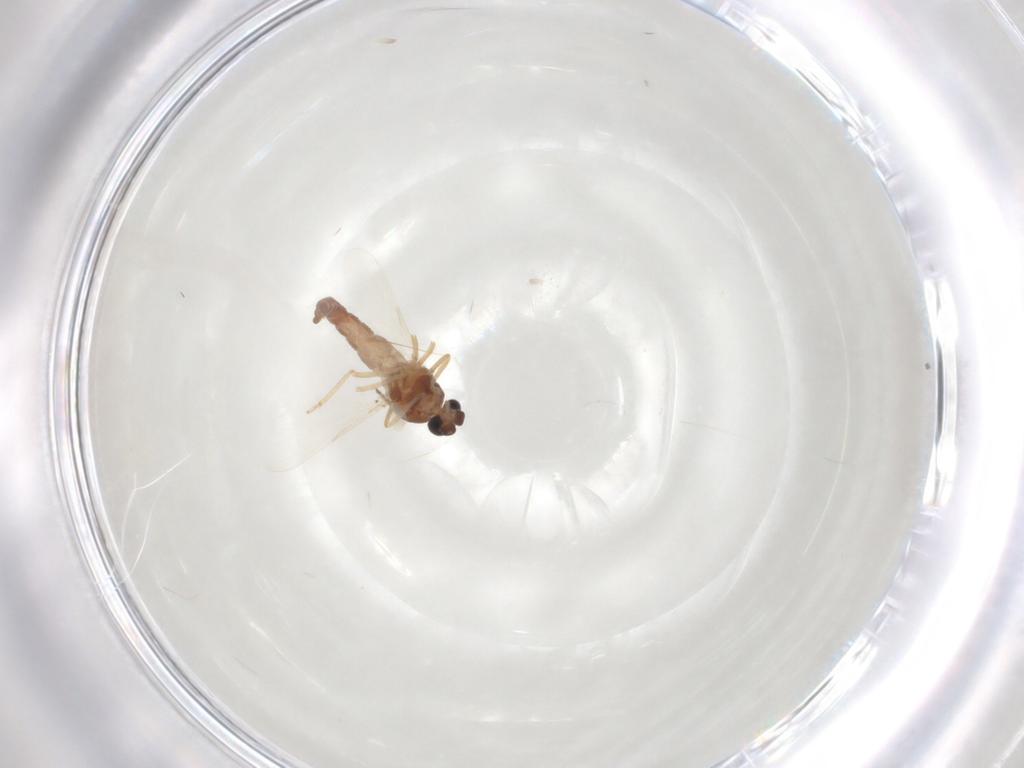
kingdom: Animalia
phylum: Arthropoda
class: Insecta
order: Diptera
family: Ceratopogonidae
